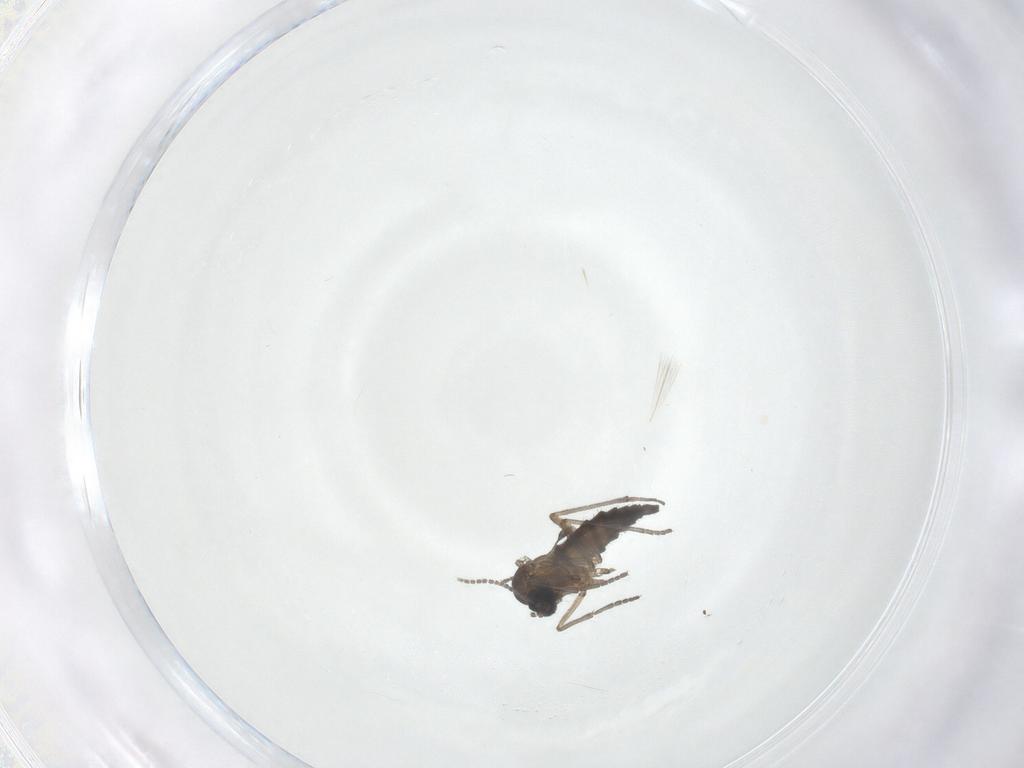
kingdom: Animalia
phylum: Arthropoda
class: Insecta
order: Diptera
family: Sciaridae
